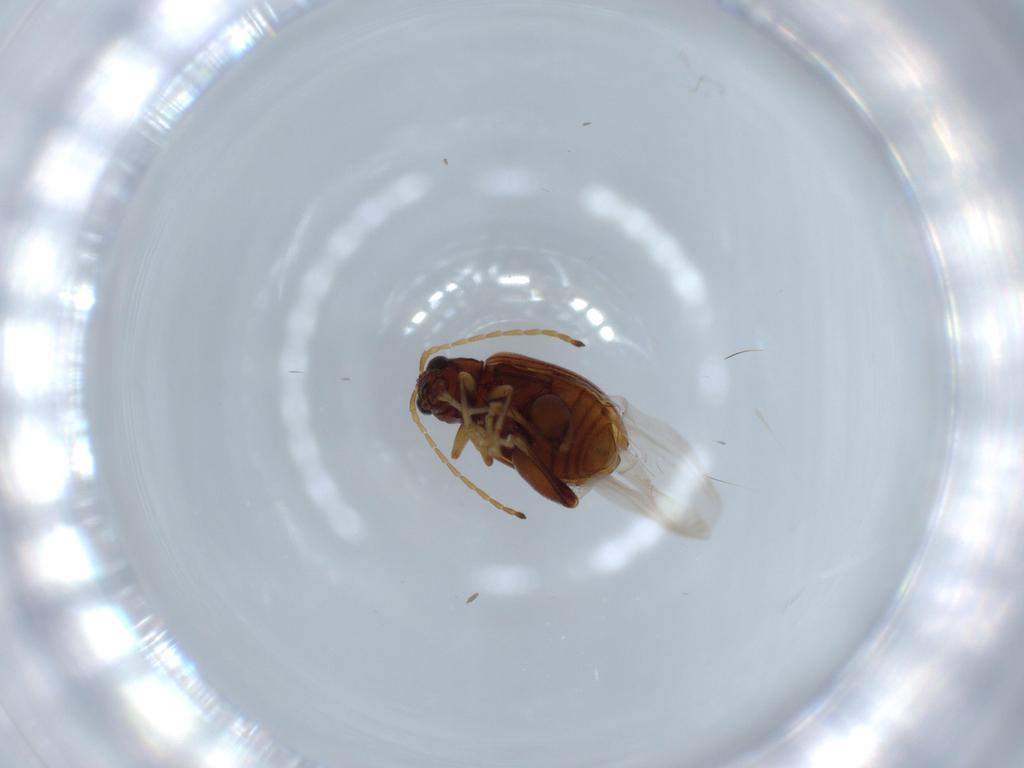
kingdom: Animalia
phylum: Arthropoda
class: Insecta
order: Coleoptera
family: Chrysomelidae
